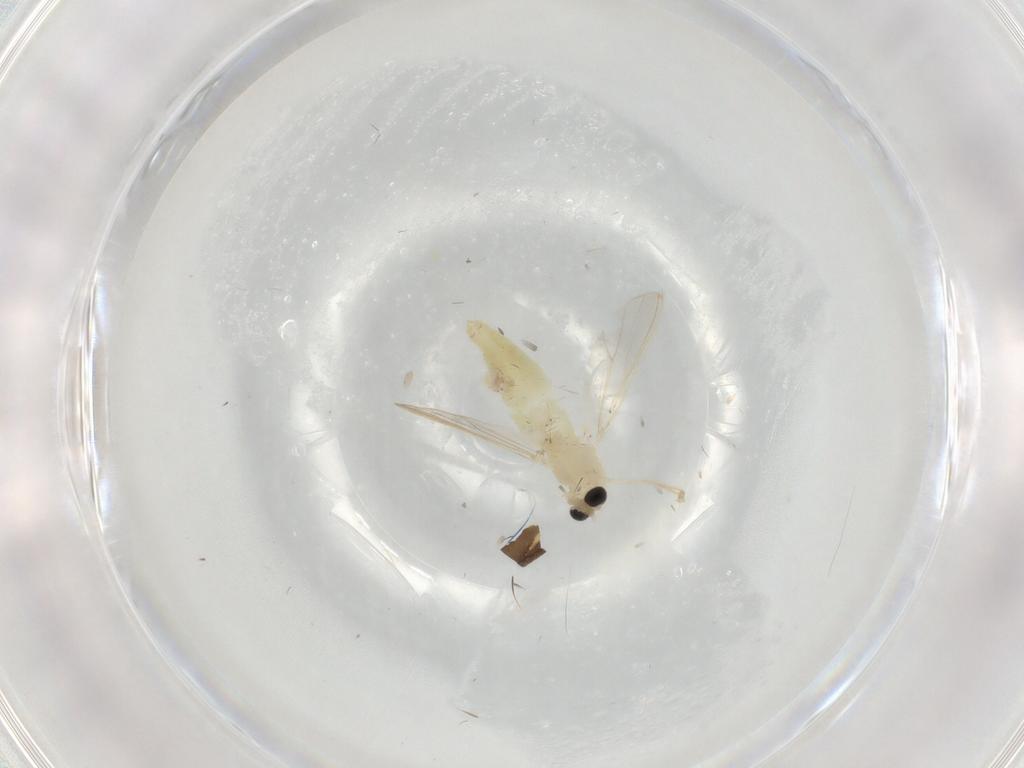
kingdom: Animalia
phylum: Arthropoda
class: Insecta
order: Diptera
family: Chironomidae
